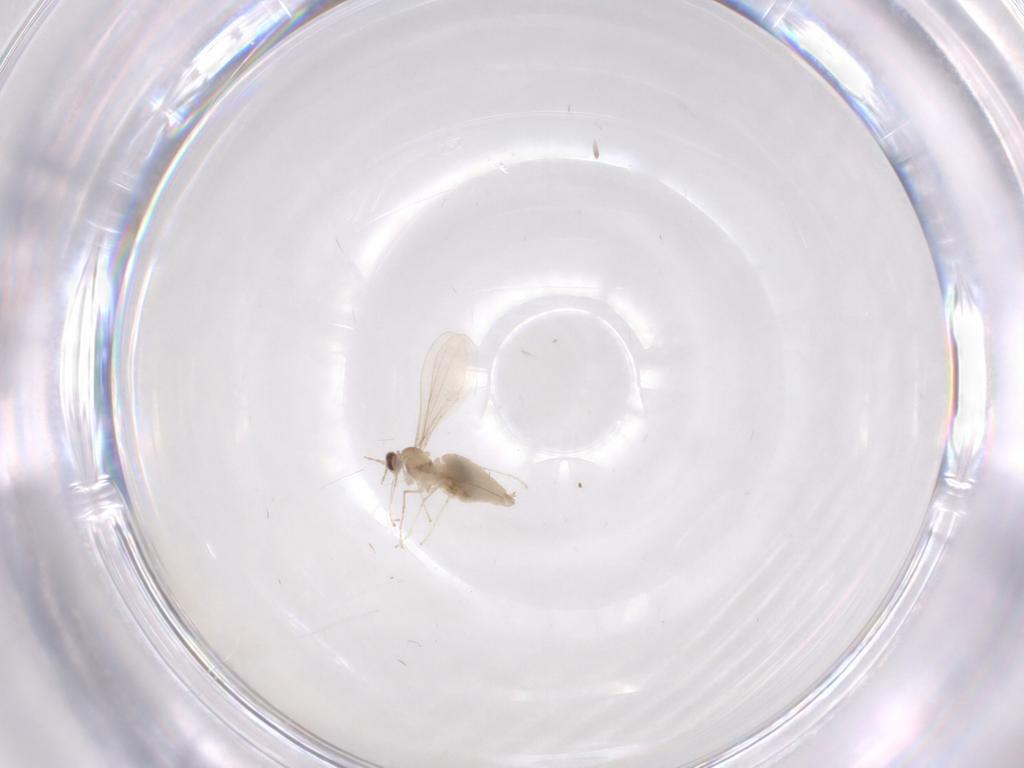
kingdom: Animalia
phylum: Arthropoda
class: Insecta
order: Diptera
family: Cecidomyiidae
